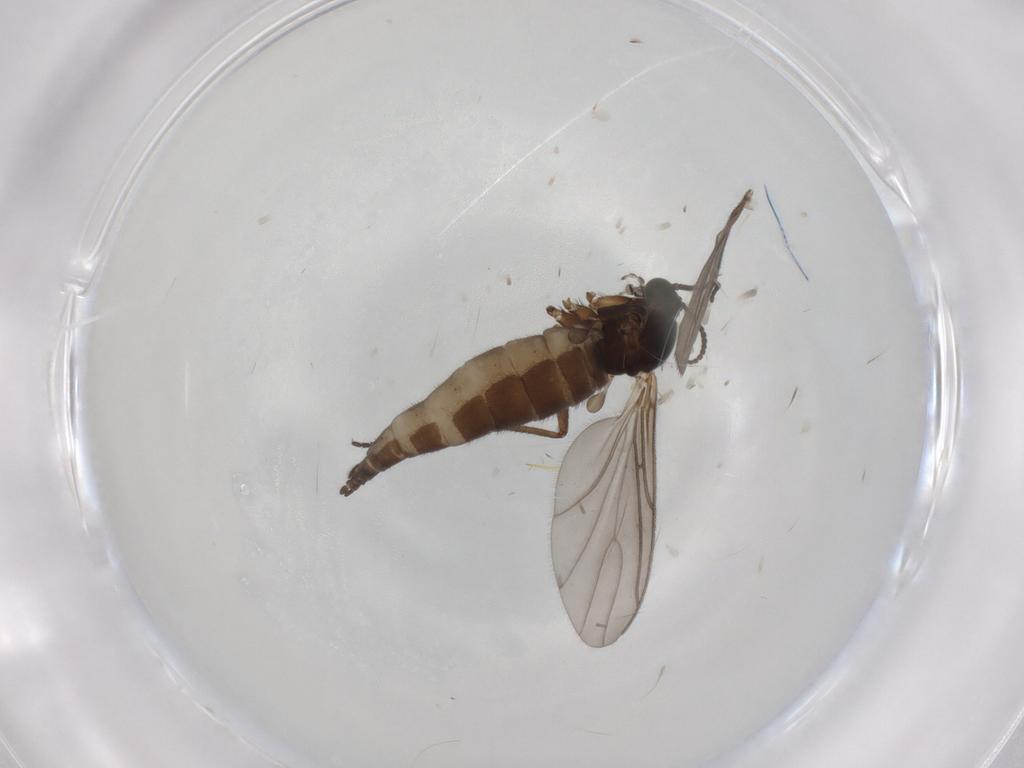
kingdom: Animalia
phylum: Arthropoda
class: Insecta
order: Diptera
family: Sciaridae
